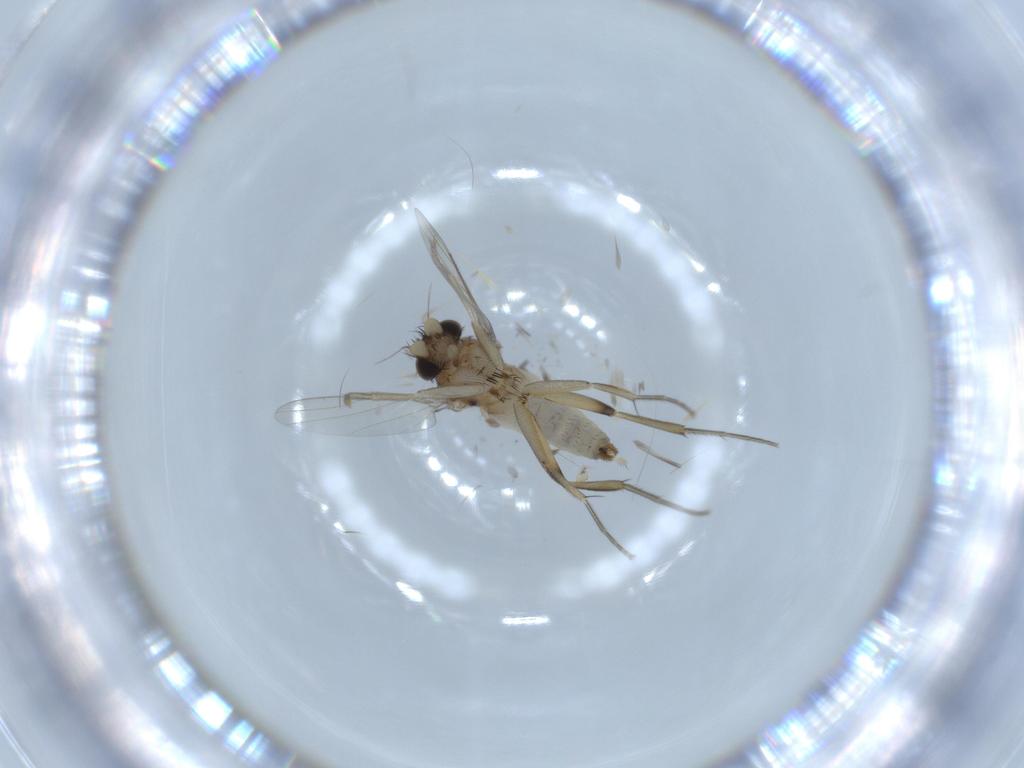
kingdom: Animalia
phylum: Arthropoda
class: Insecta
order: Diptera
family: Phoridae
